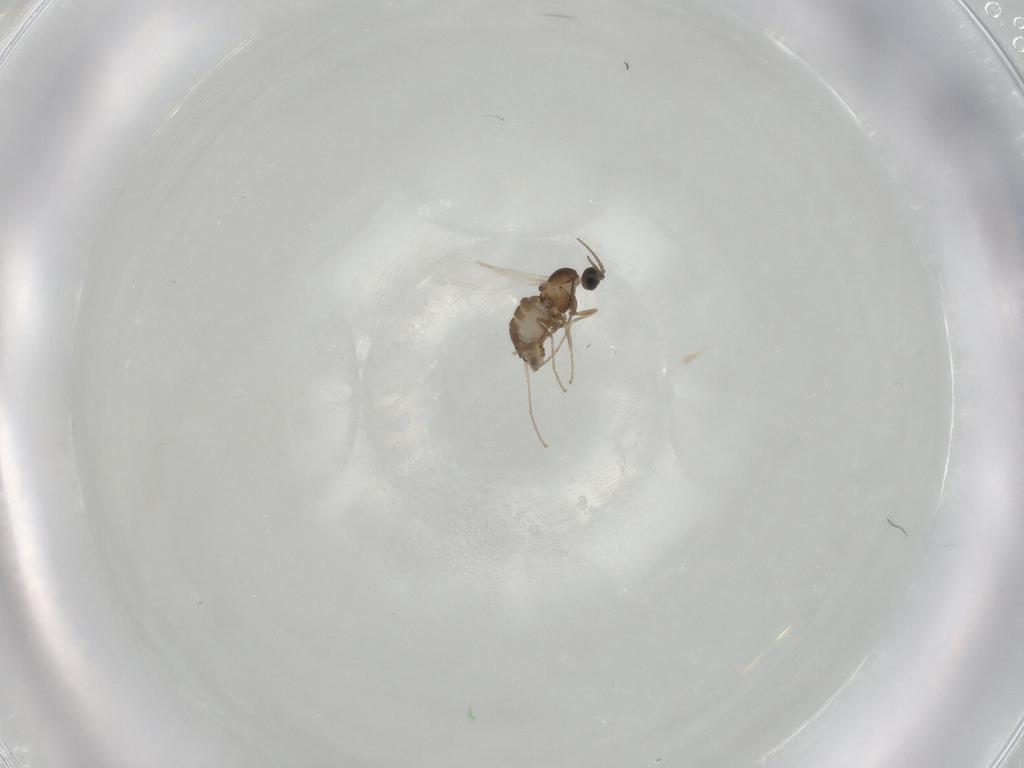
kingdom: Animalia
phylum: Arthropoda
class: Insecta
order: Diptera
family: Cecidomyiidae
